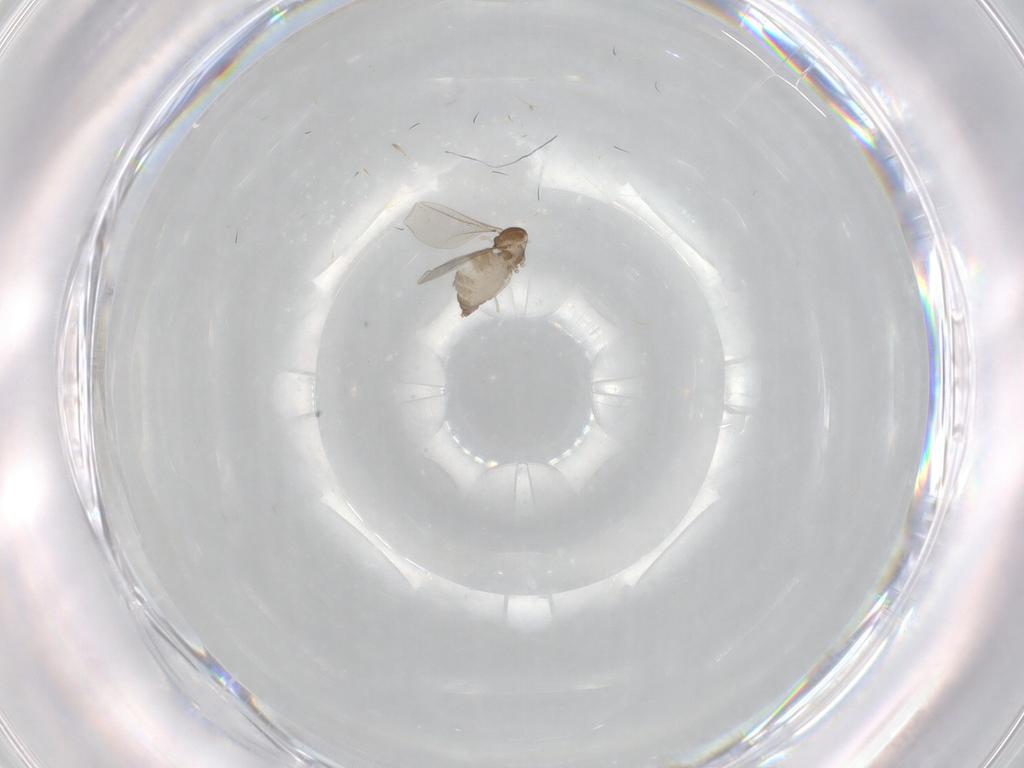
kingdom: Animalia
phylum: Arthropoda
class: Insecta
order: Diptera
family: Cecidomyiidae
